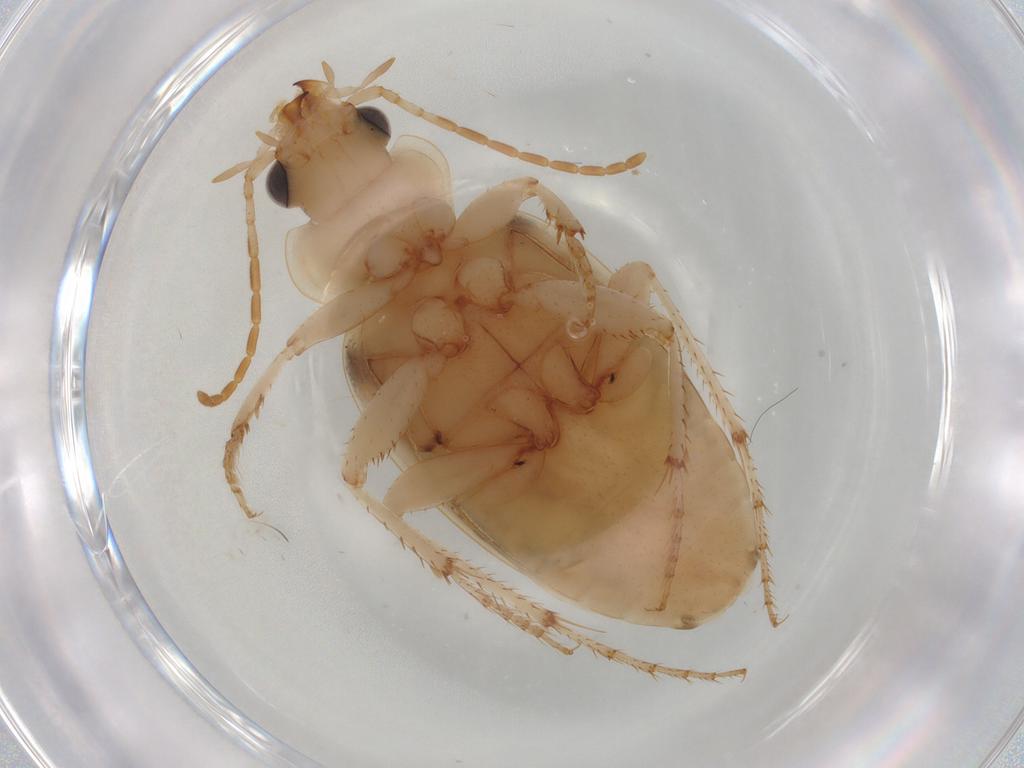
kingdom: Animalia
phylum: Arthropoda
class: Insecta
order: Coleoptera
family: Carabidae
